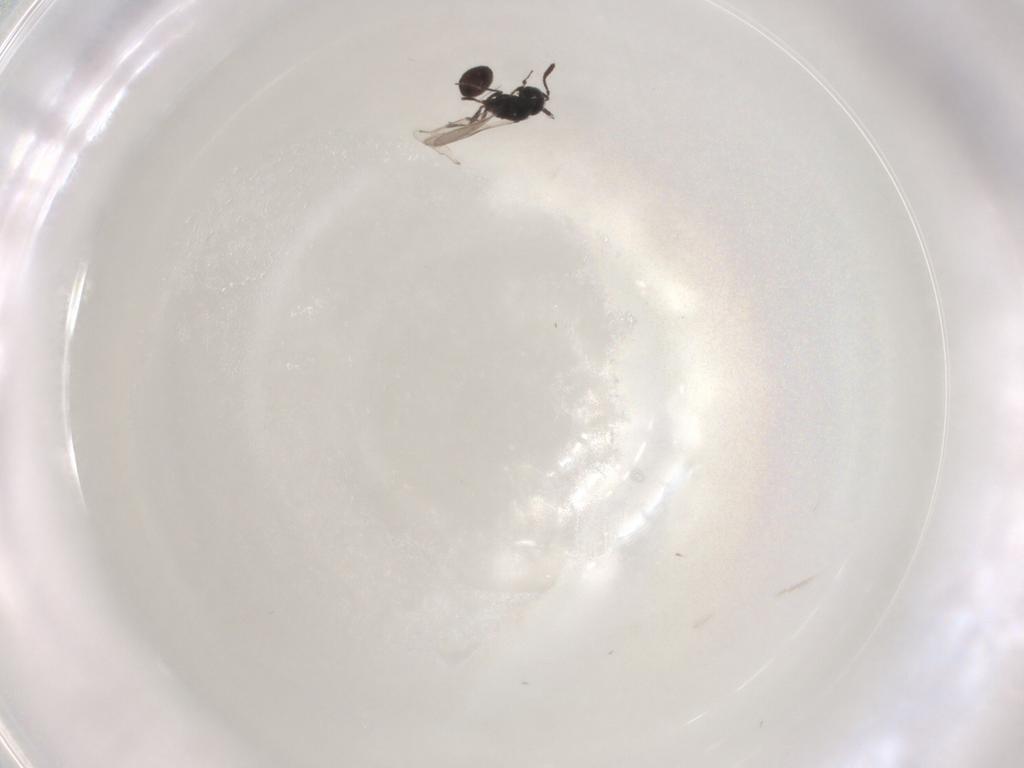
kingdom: Animalia
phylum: Arthropoda
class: Insecta
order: Hymenoptera
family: Scelionidae
